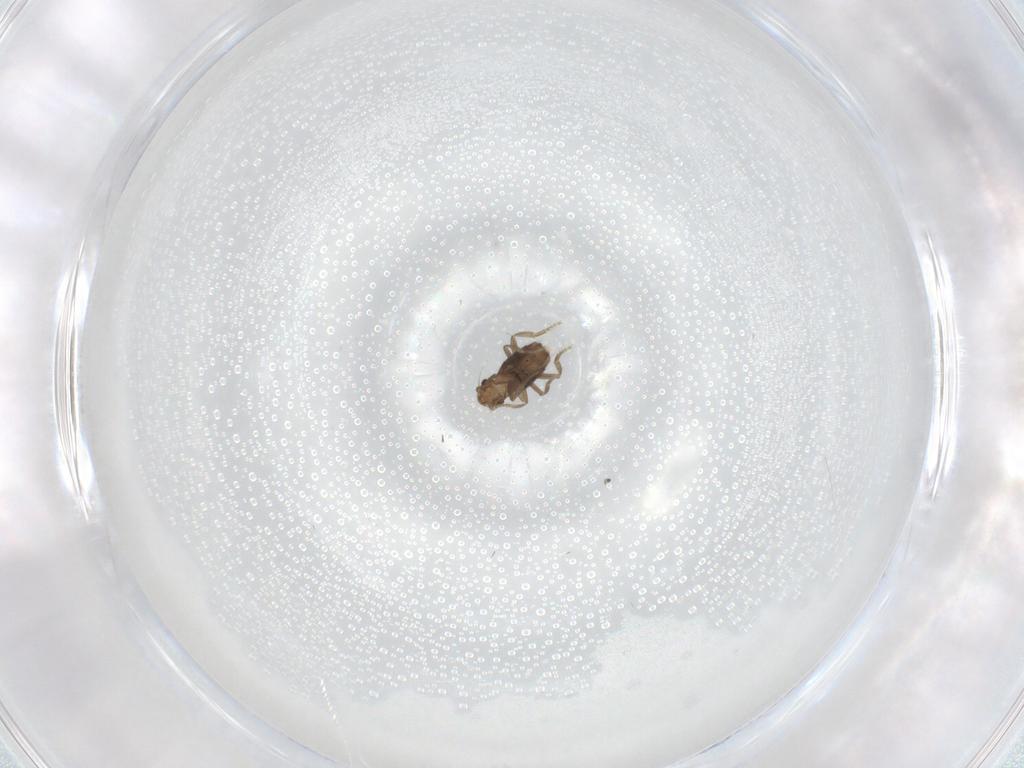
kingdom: Animalia
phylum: Arthropoda
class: Insecta
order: Diptera
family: Phoridae
